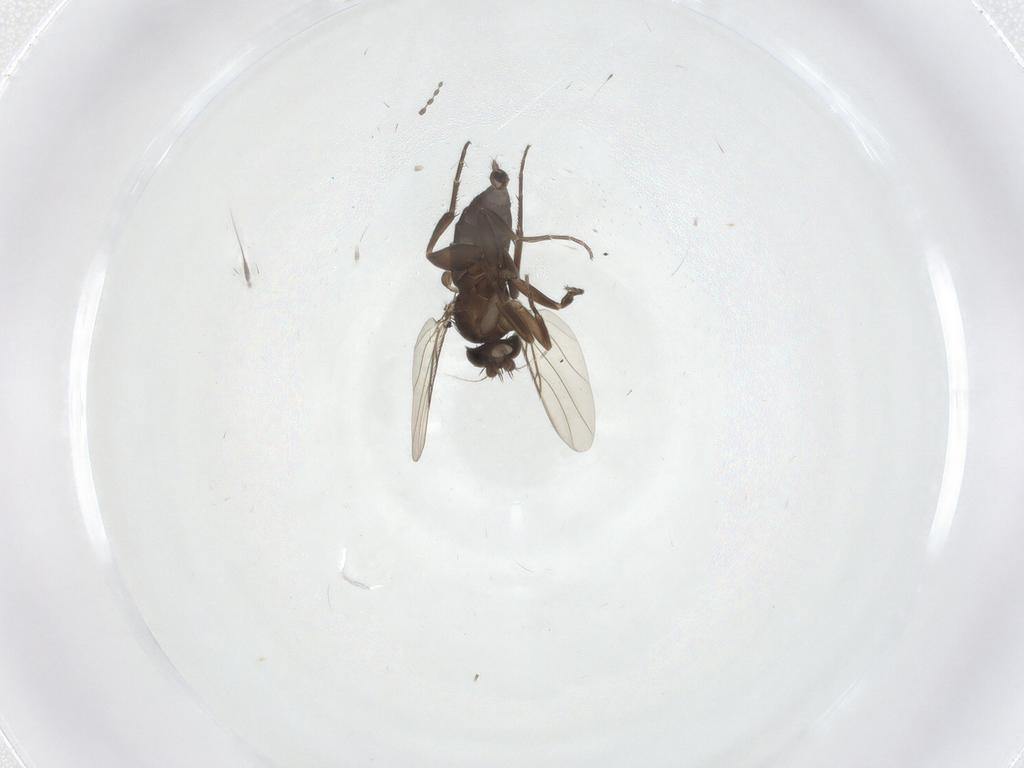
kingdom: Animalia
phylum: Arthropoda
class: Insecta
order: Diptera
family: Cecidomyiidae
